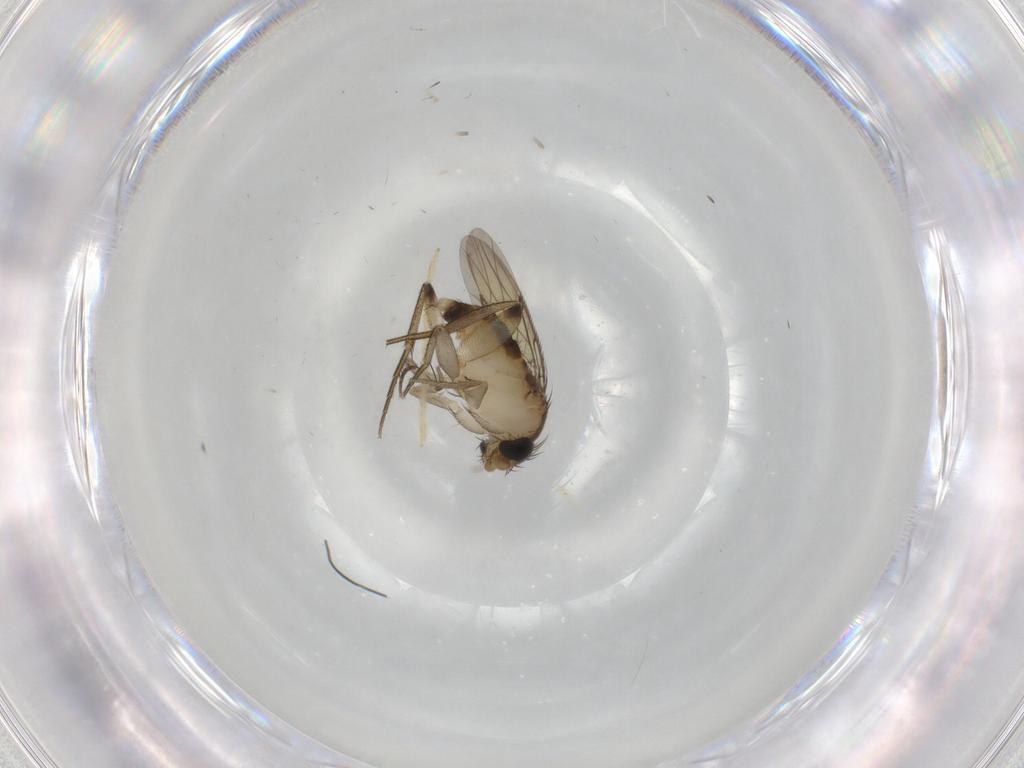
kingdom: Animalia
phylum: Arthropoda
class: Insecta
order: Diptera
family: Phoridae
